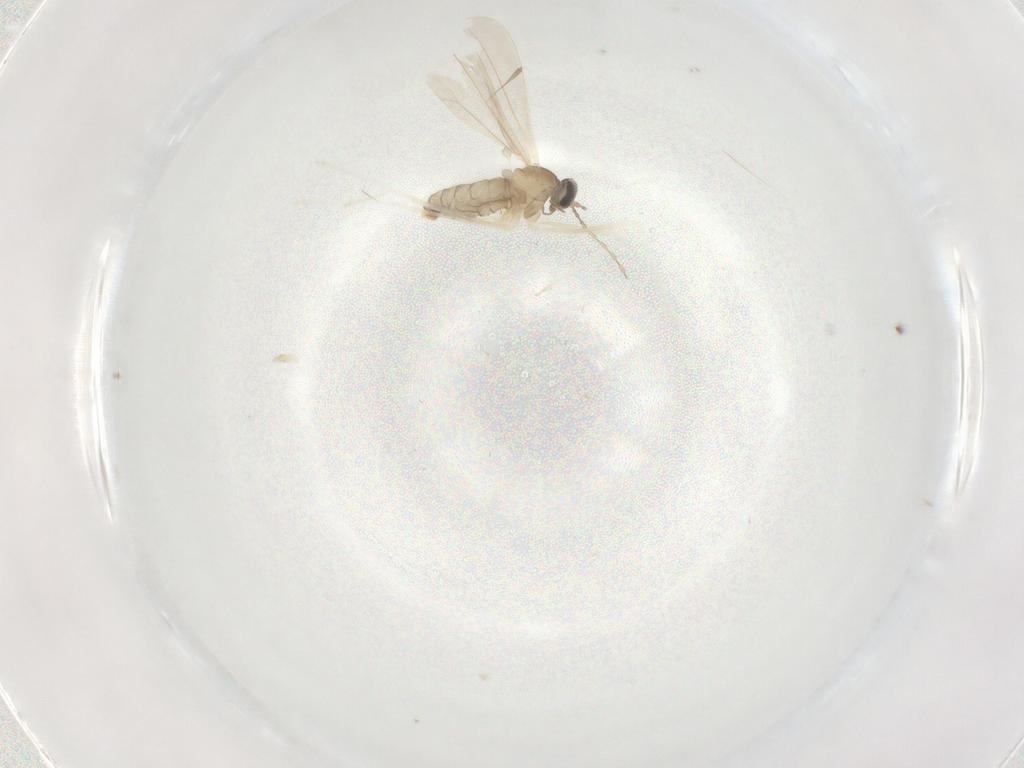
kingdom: Animalia
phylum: Arthropoda
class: Insecta
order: Diptera
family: Cecidomyiidae
